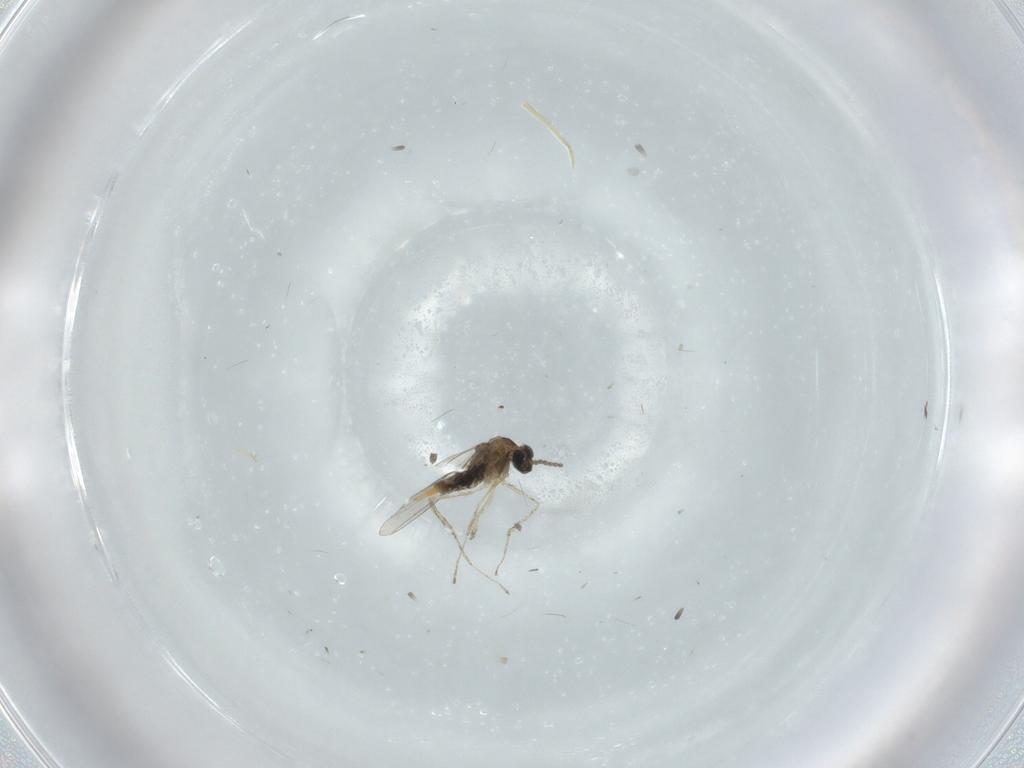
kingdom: Animalia
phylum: Arthropoda
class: Insecta
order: Diptera
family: Cecidomyiidae
